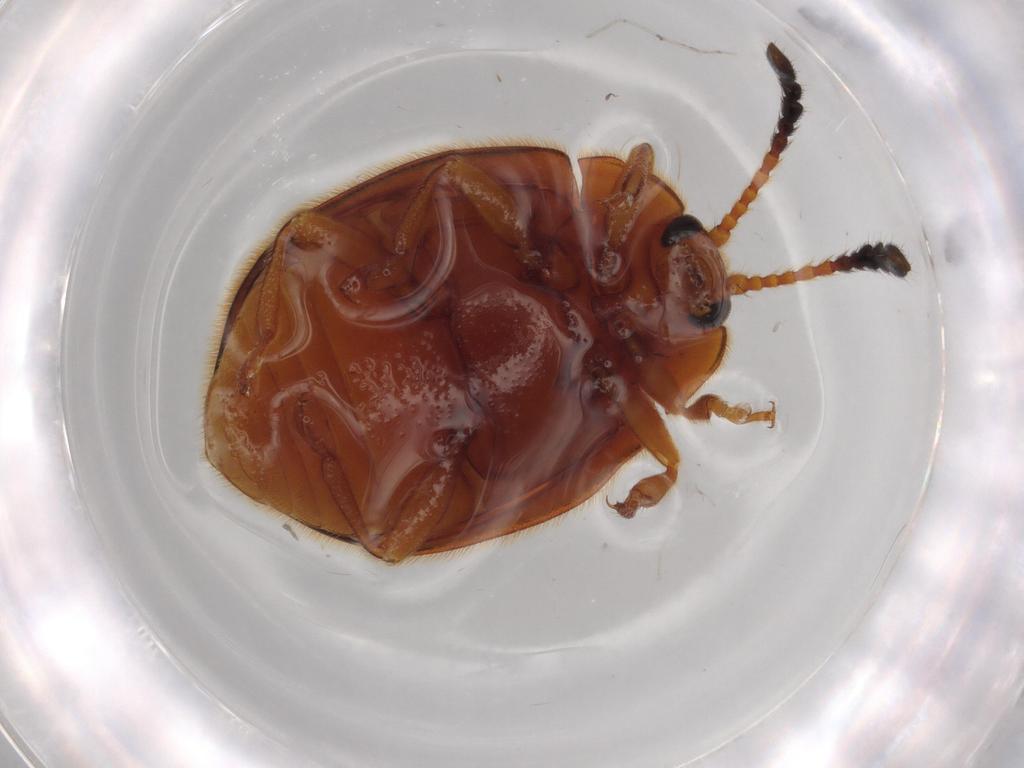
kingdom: Animalia
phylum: Arthropoda
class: Insecta
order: Coleoptera
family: Endomychidae
